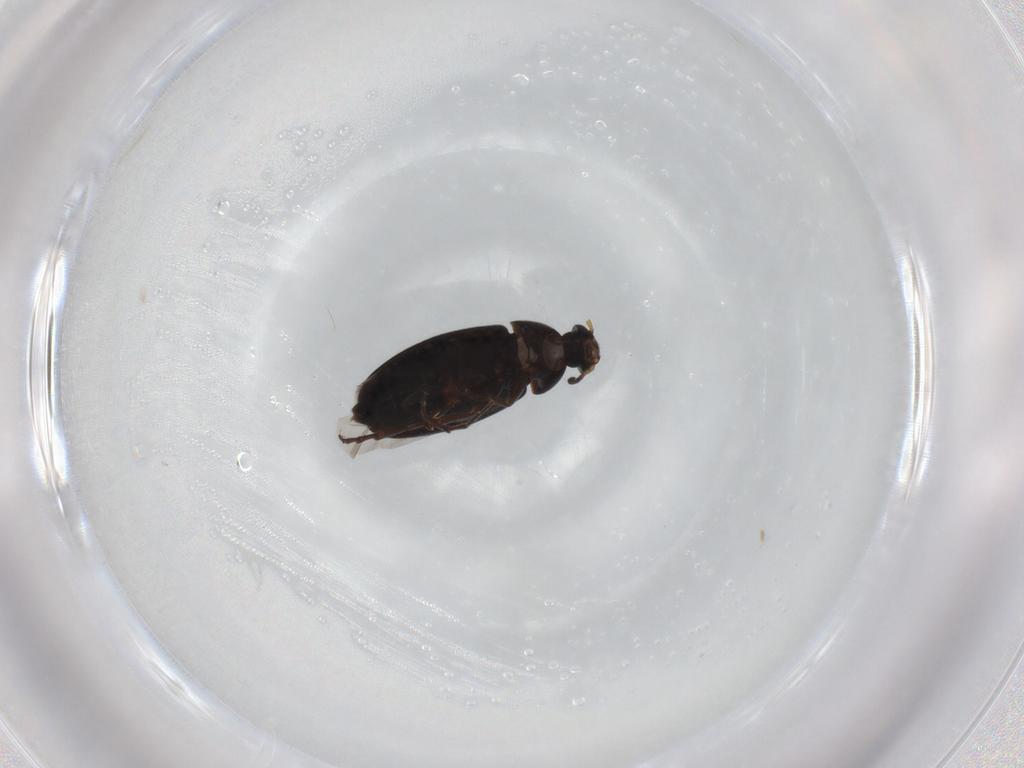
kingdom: Animalia
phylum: Arthropoda
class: Insecta
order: Coleoptera
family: Scraptiidae
